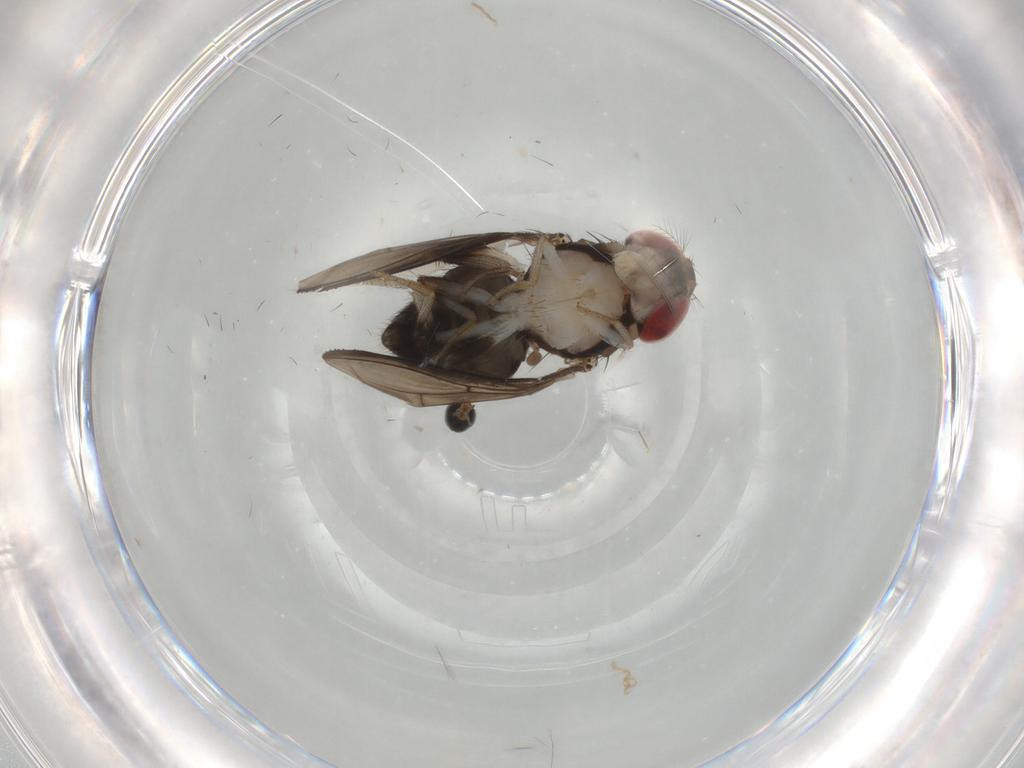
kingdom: Animalia
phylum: Arthropoda
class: Insecta
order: Diptera
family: Cecidomyiidae
